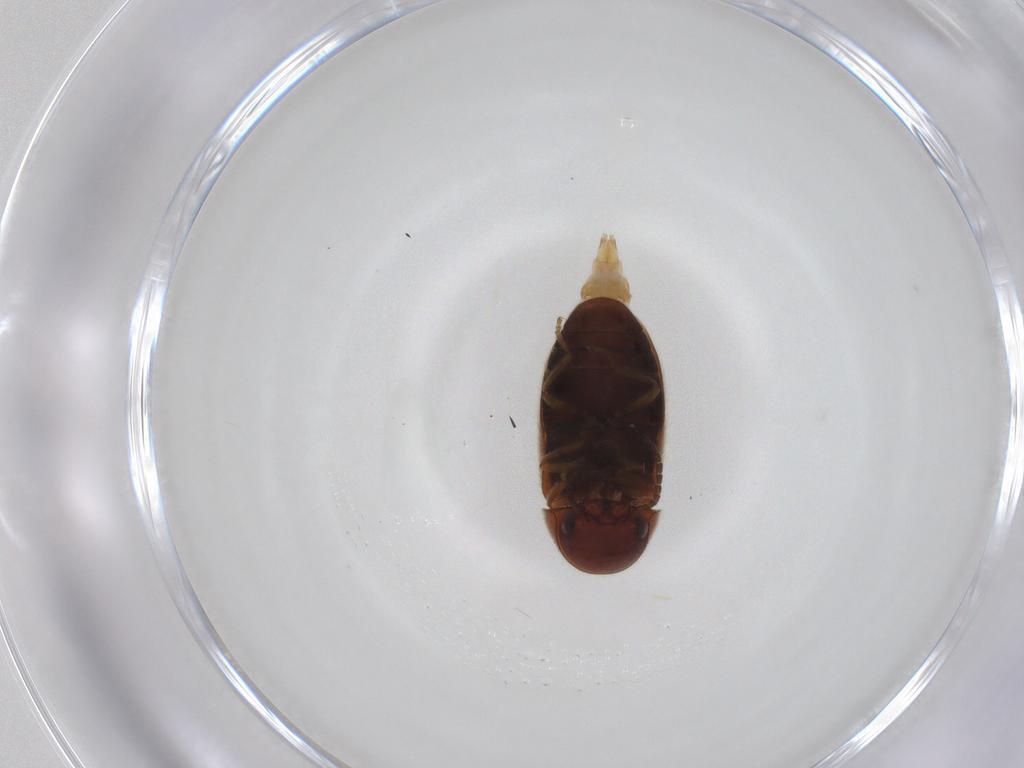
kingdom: Animalia
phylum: Arthropoda
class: Insecta
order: Coleoptera
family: Ptinidae
